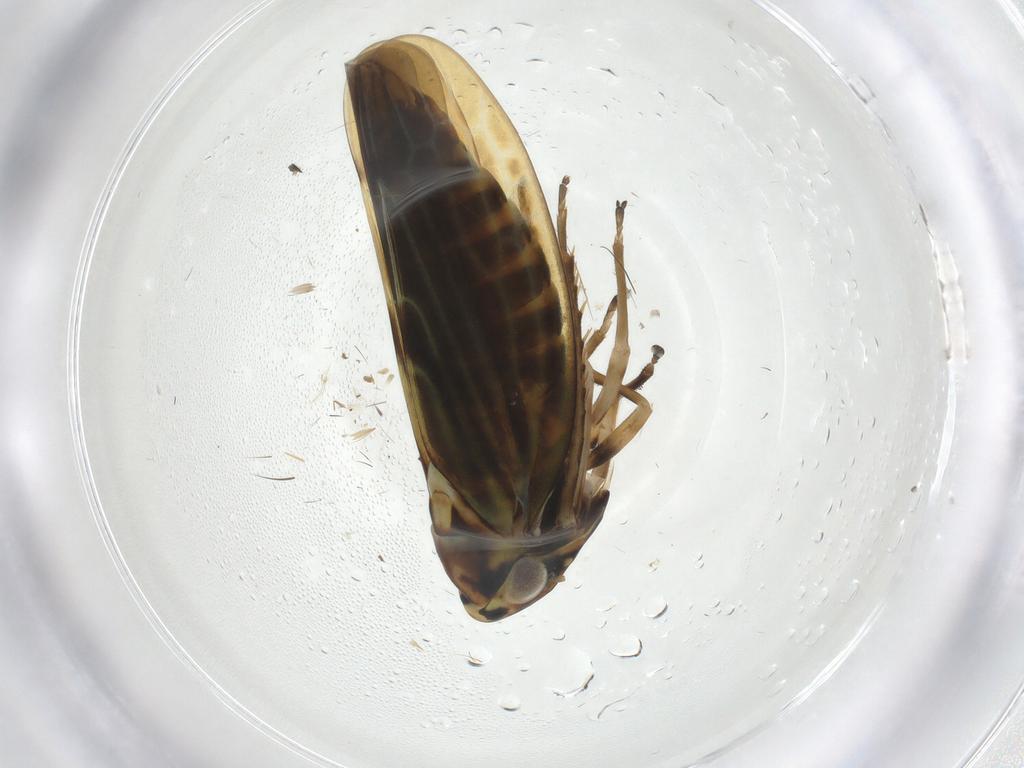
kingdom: Animalia
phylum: Arthropoda
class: Insecta
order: Hemiptera
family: Cicadellidae
